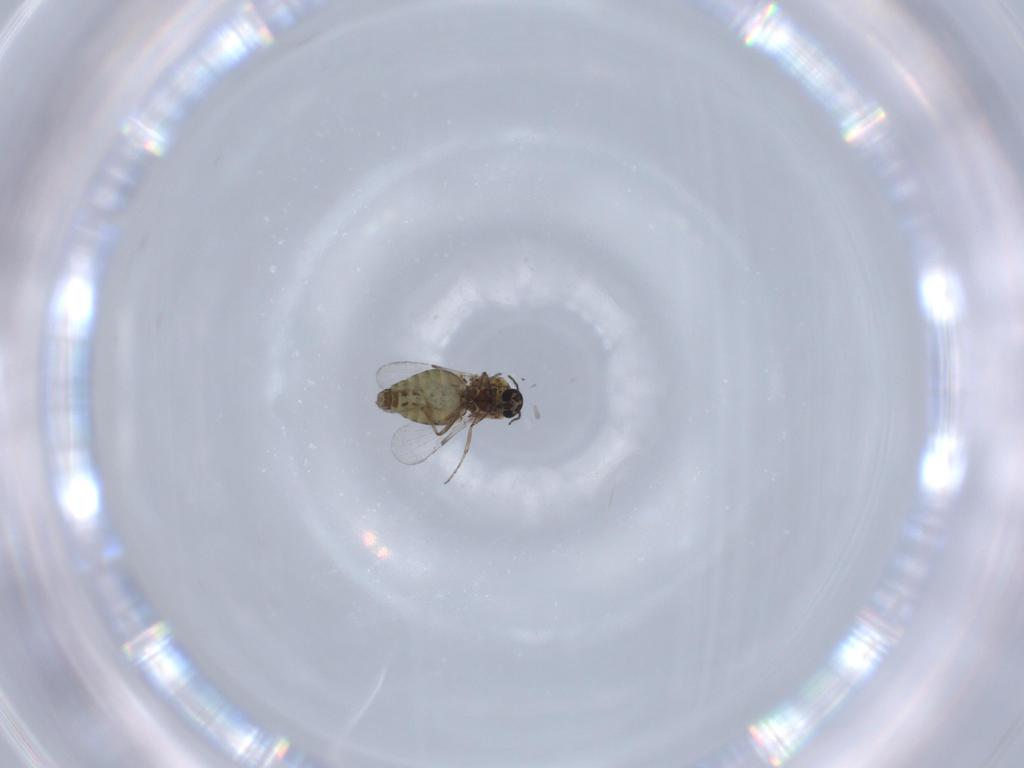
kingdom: Animalia
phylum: Arthropoda
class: Insecta
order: Diptera
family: Ceratopogonidae
